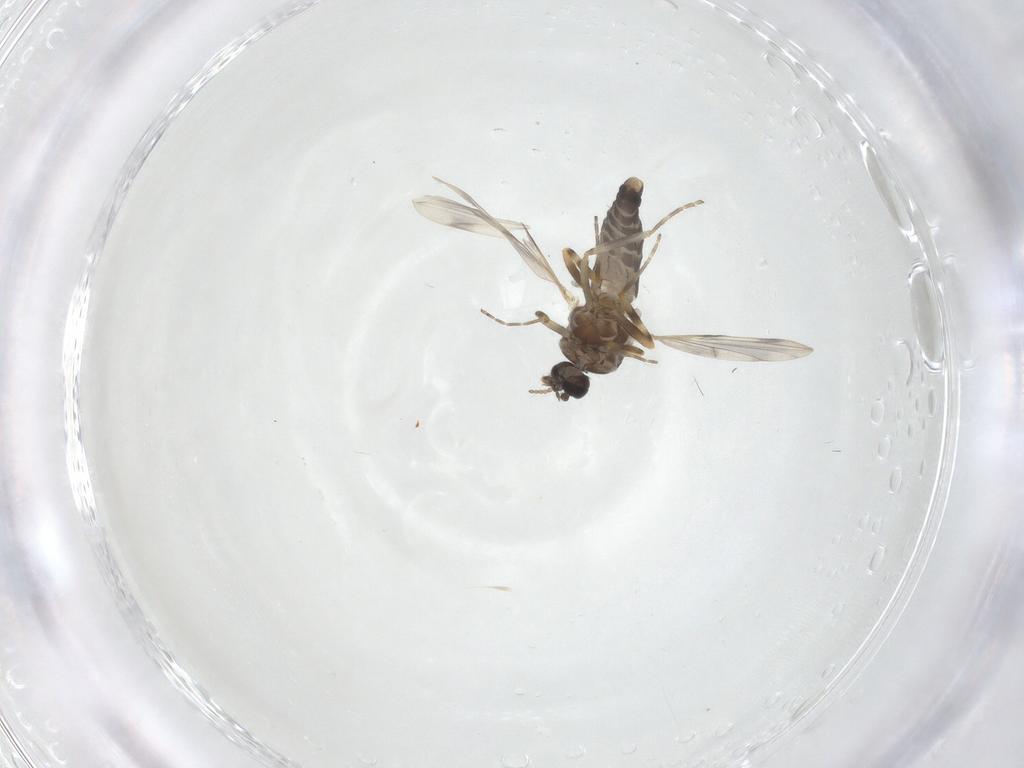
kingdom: Animalia
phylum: Arthropoda
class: Insecta
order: Diptera
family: Ceratopogonidae
